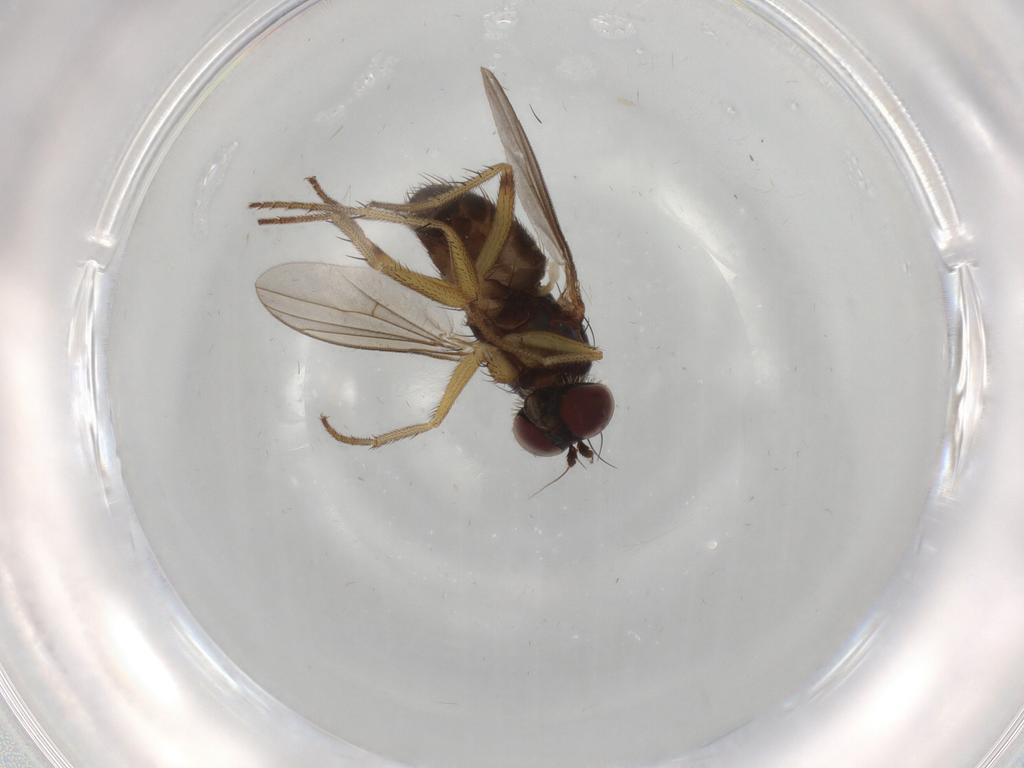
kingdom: Animalia
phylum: Arthropoda
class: Insecta
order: Diptera
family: Dolichopodidae
